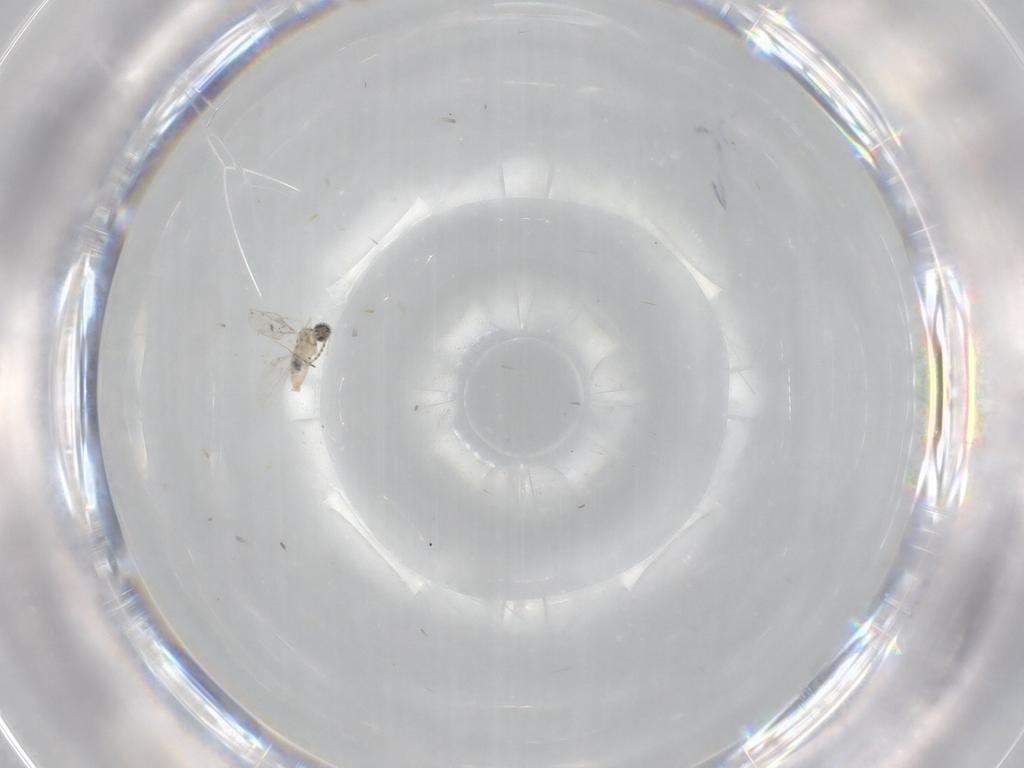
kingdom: Animalia
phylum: Arthropoda
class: Insecta
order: Diptera
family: Cecidomyiidae
